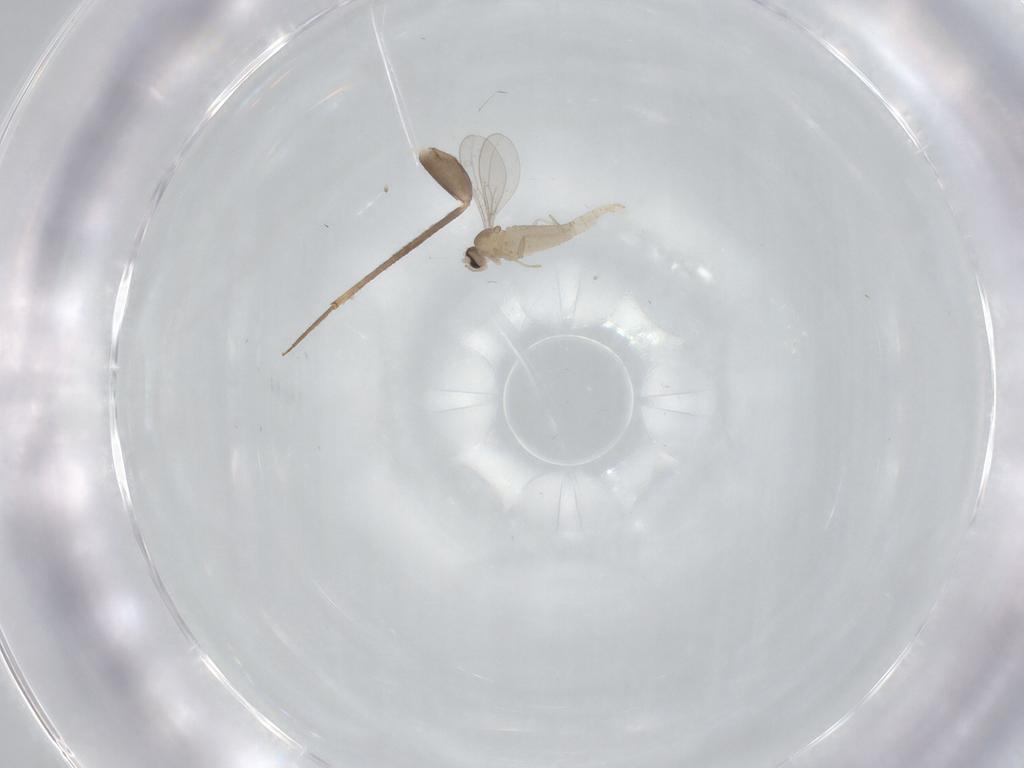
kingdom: Animalia
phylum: Arthropoda
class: Insecta
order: Diptera
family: Cecidomyiidae
